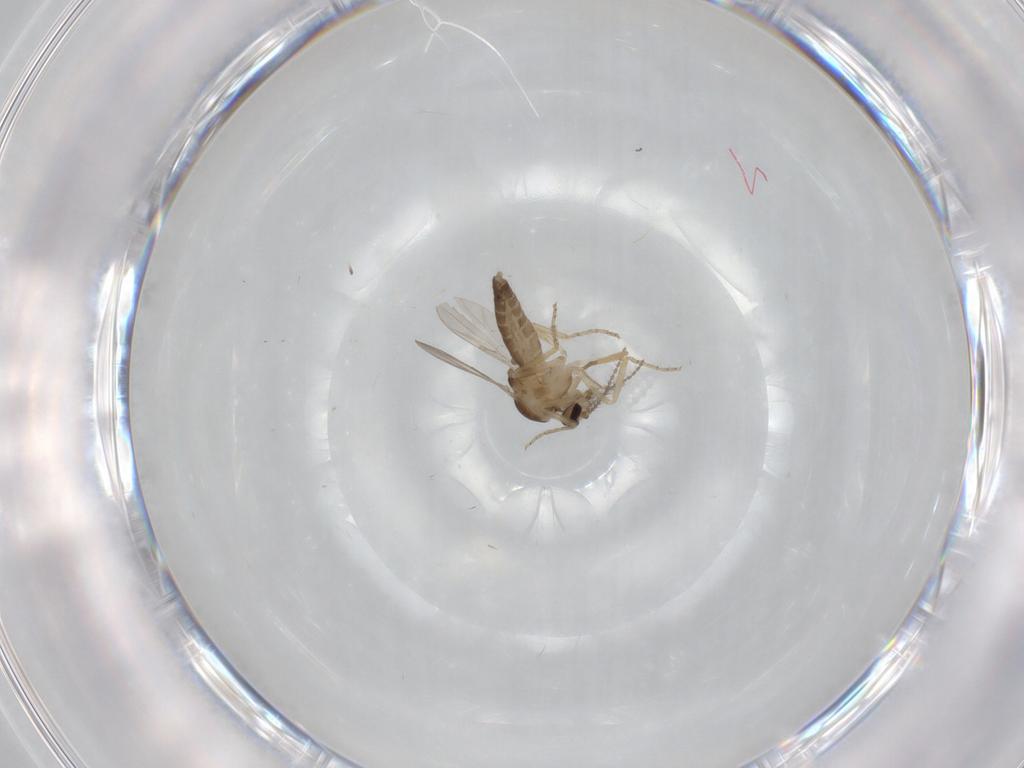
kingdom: Animalia
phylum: Arthropoda
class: Insecta
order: Diptera
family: Ceratopogonidae
